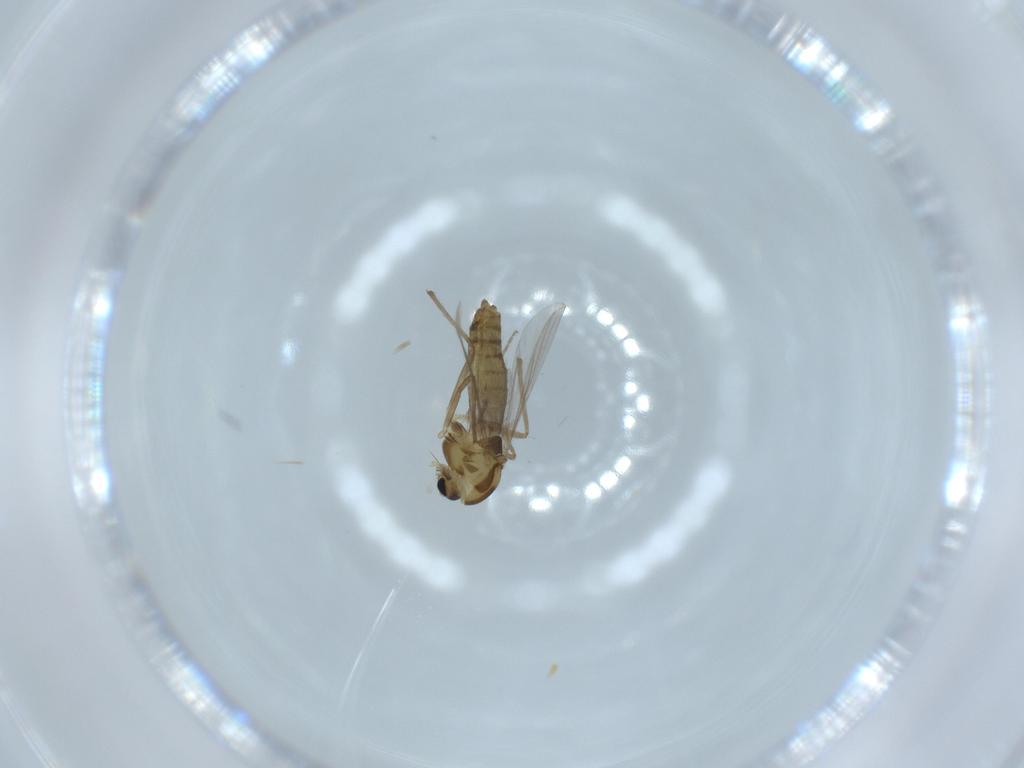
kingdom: Animalia
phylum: Arthropoda
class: Insecta
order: Diptera
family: Chironomidae
